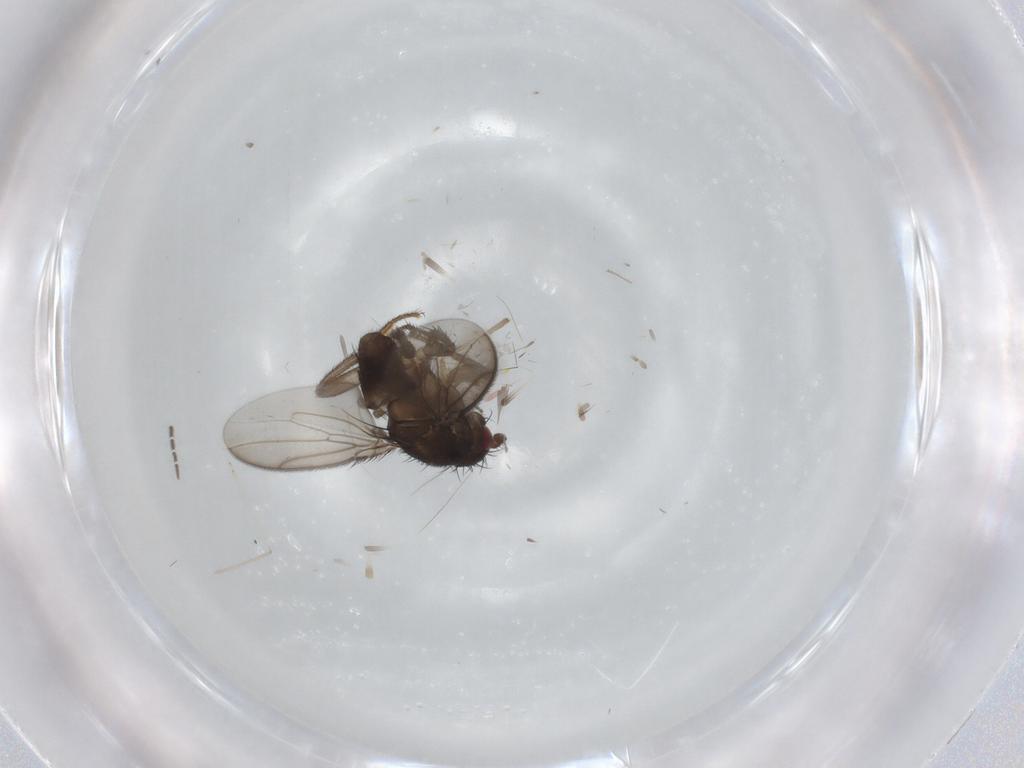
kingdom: Animalia
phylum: Arthropoda
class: Insecta
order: Diptera
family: Sphaeroceridae
